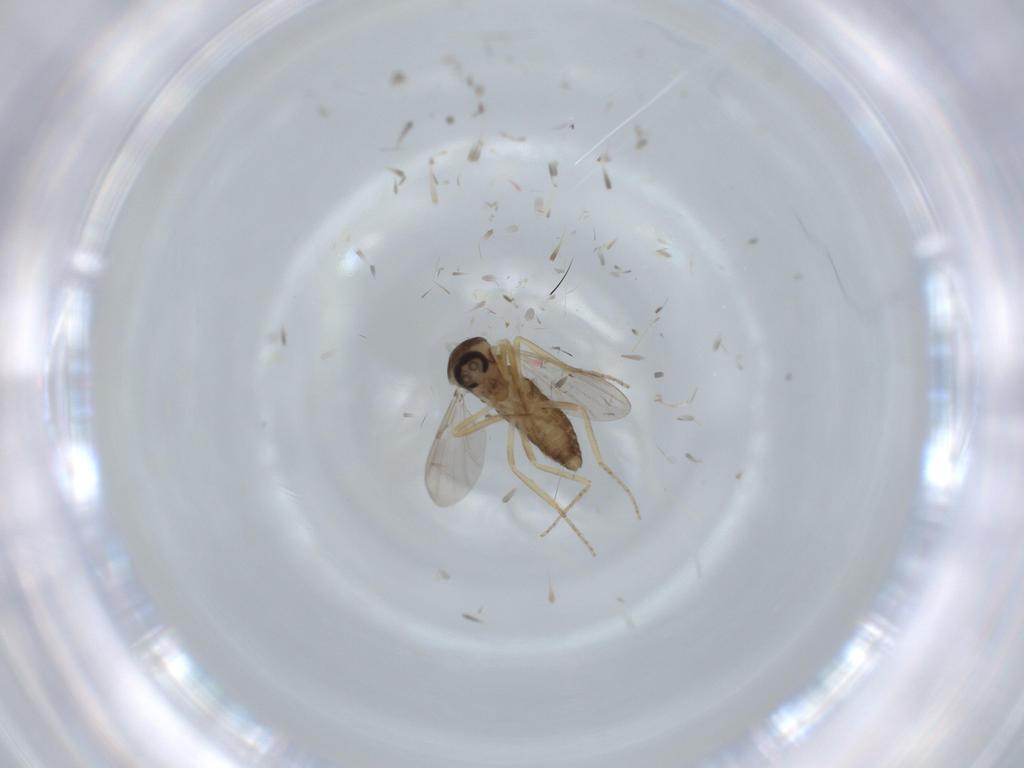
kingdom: Animalia
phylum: Arthropoda
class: Insecta
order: Diptera
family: Ceratopogonidae
